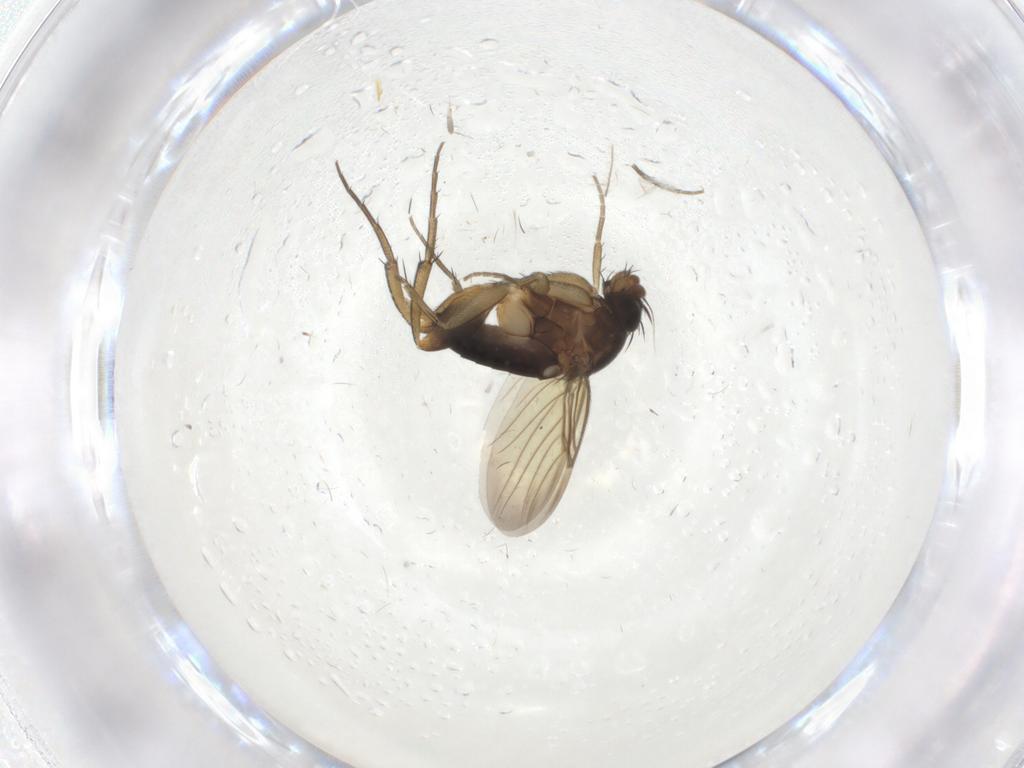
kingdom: Animalia
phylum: Arthropoda
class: Insecta
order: Diptera
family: Phoridae
